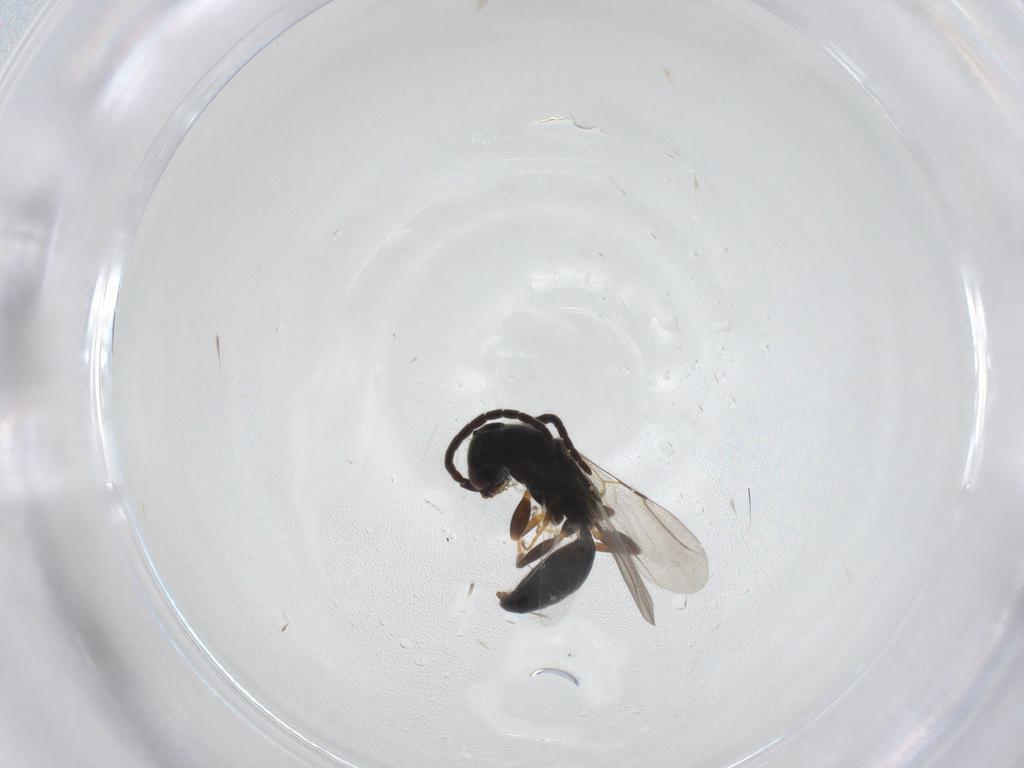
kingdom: Animalia
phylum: Arthropoda
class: Insecta
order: Hymenoptera
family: Bethylidae
